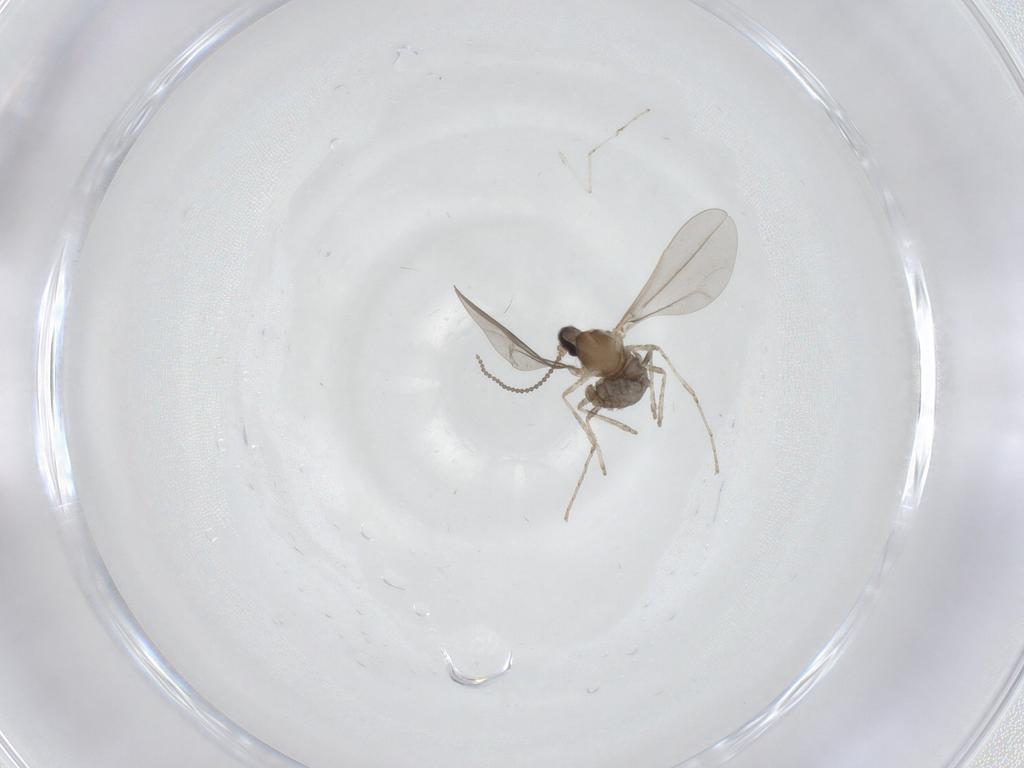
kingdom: Animalia
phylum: Arthropoda
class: Insecta
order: Diptera
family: Cecidomyiidae
